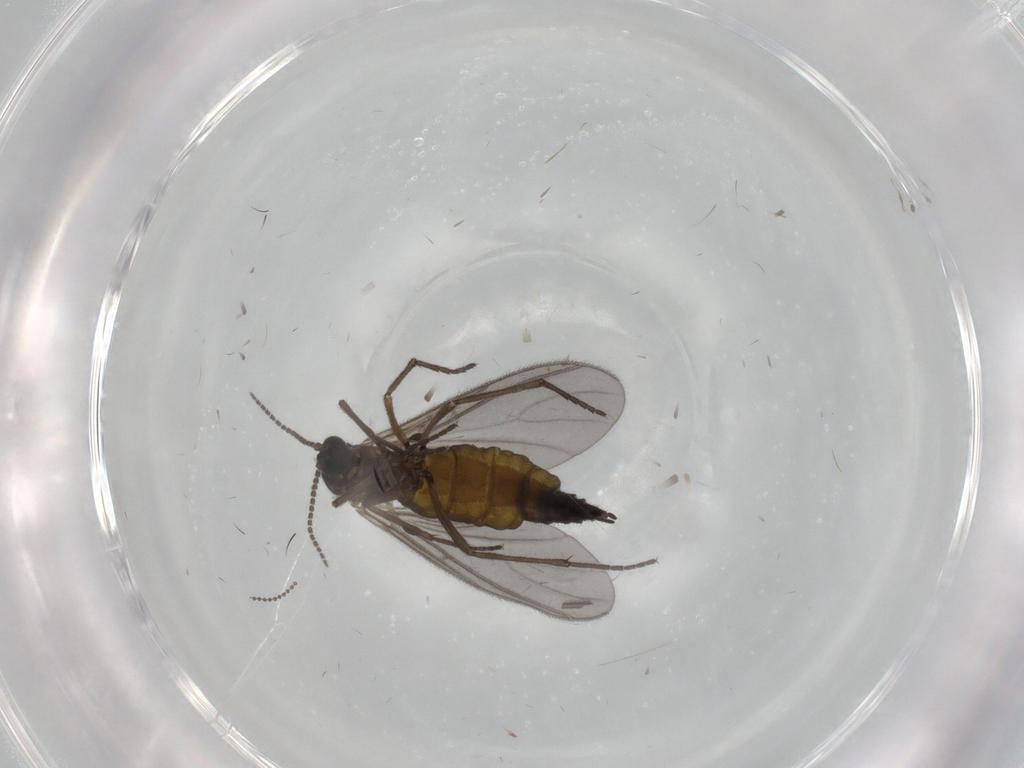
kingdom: Animalia
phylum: Arthropoda
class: Insecta
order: Diptera
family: Sciaridae
